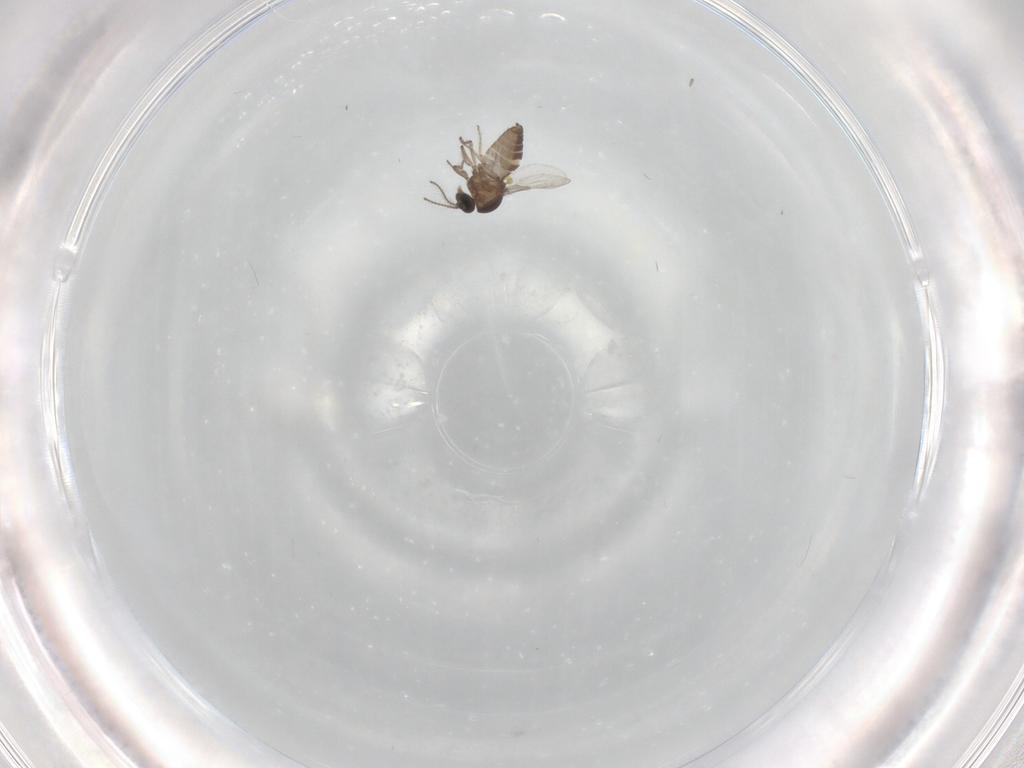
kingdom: Animalia
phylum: Arthropoda
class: Insecta
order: Diptera
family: Ceratopogonidae
